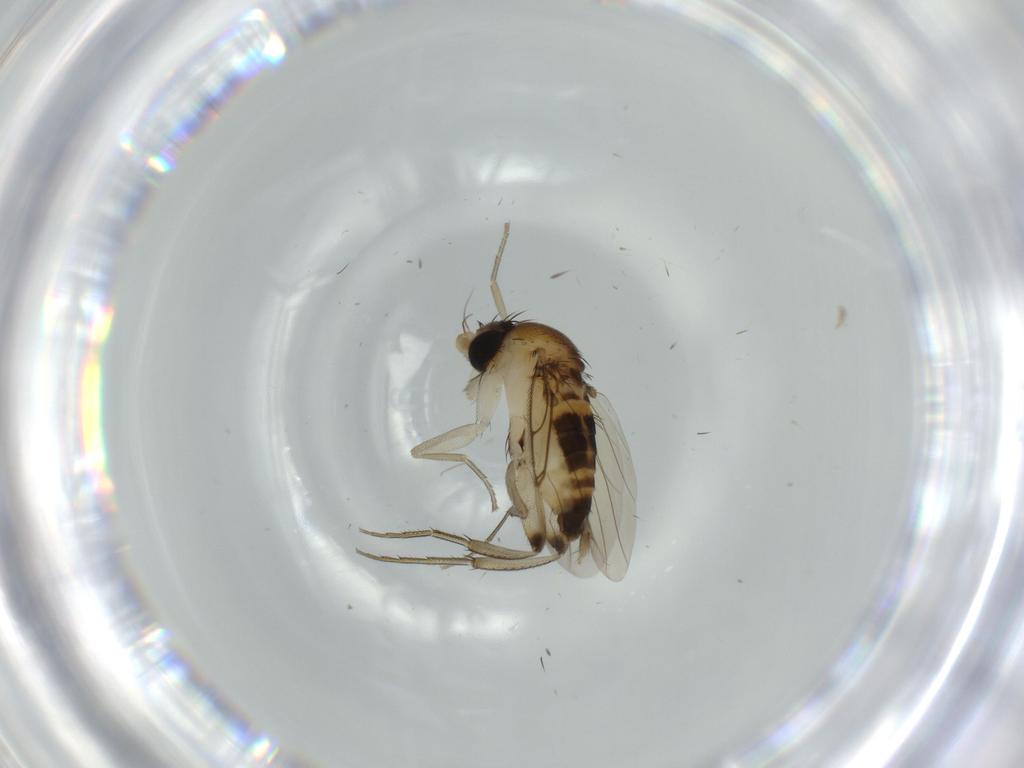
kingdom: Animalia
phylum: Arthropoda
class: Insecta
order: Diptera
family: Phoridae
